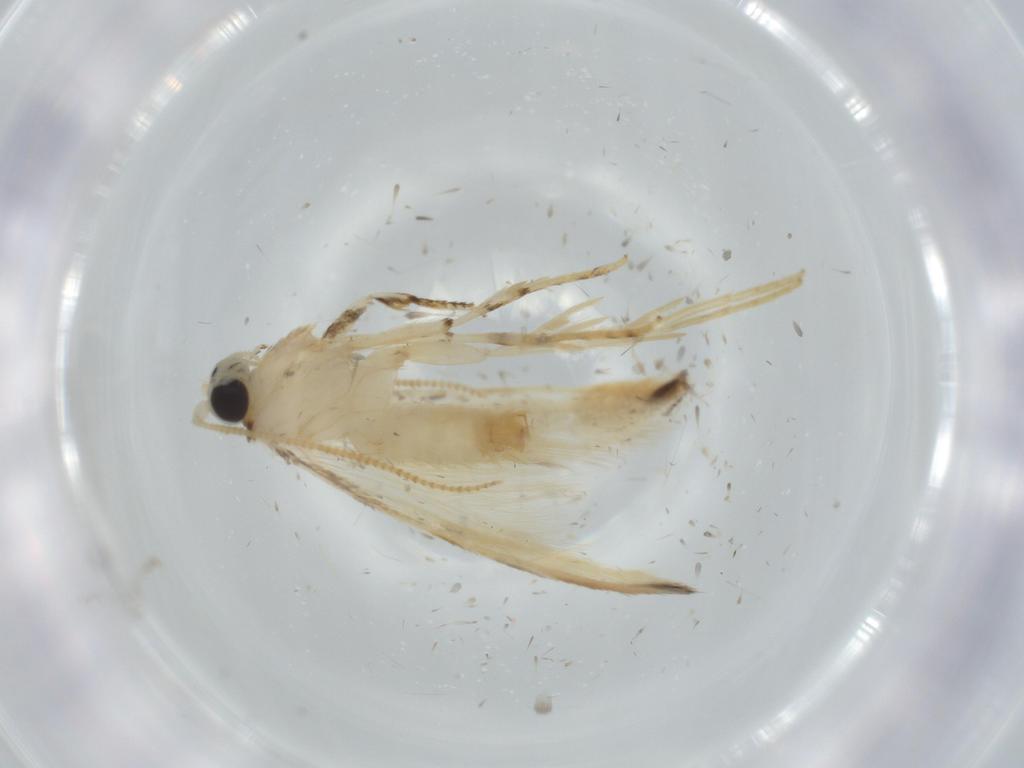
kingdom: Animalia
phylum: Arthropoda
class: Insecta
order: Lepidoptera
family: Tineidae
